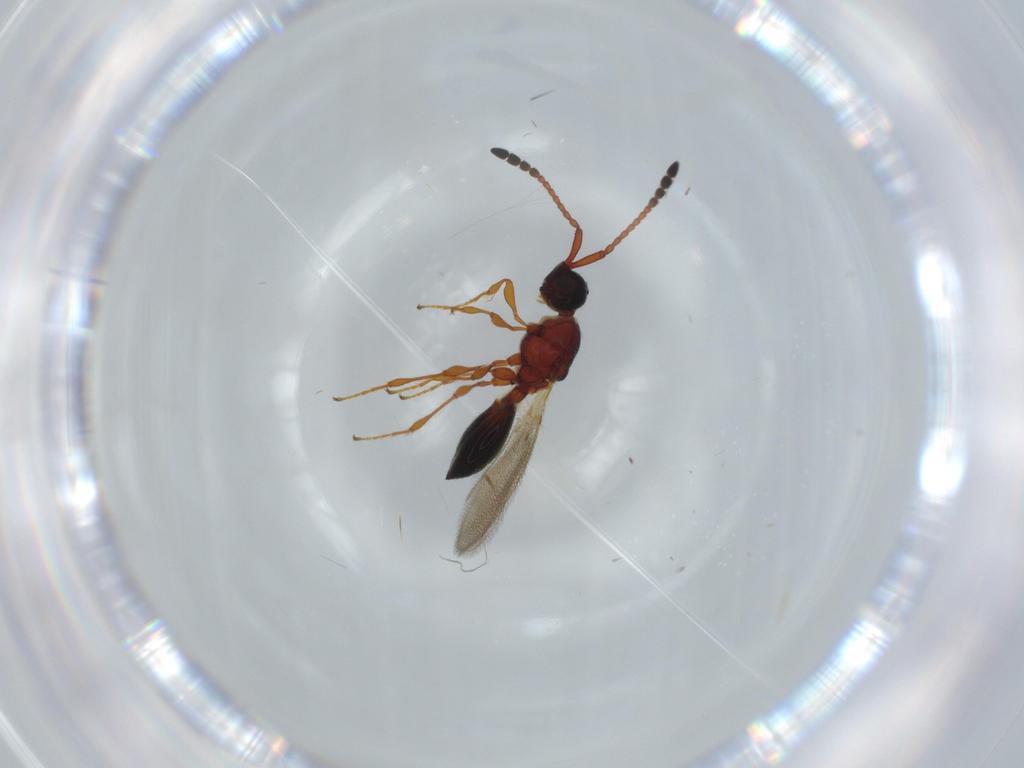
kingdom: Animalia
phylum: Arthropoda
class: Insecta
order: Hymenoptera
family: Diapriidae
